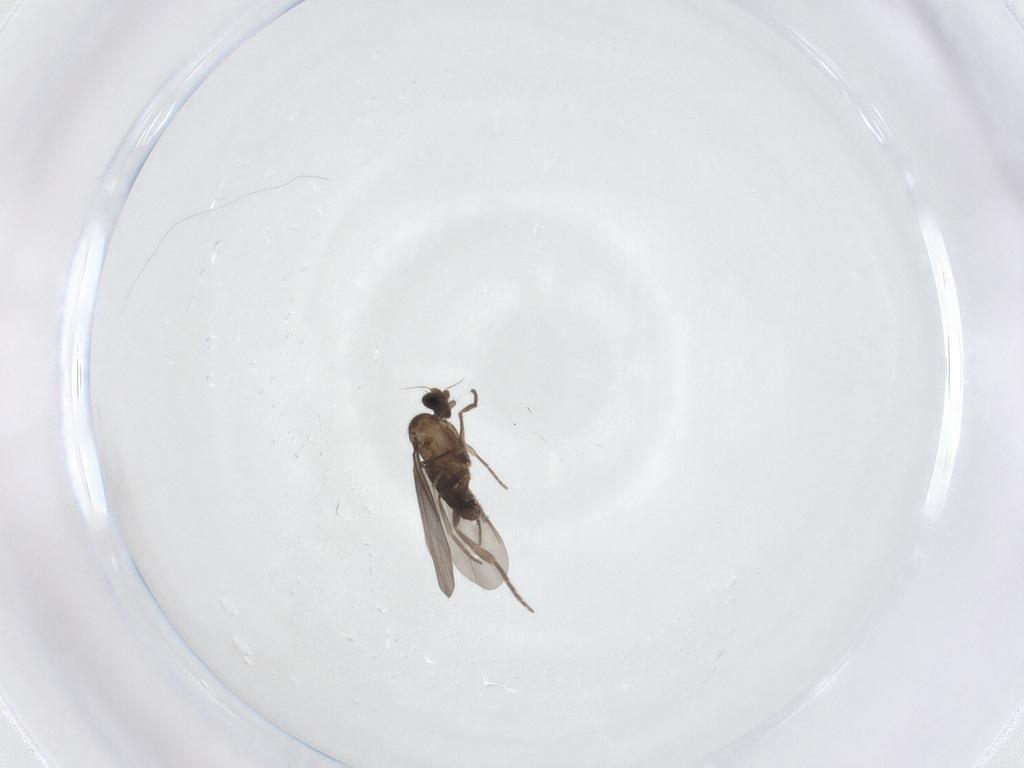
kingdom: Animalia
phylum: Arthropoda
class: Insecta
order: Diptera
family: Phoridae
